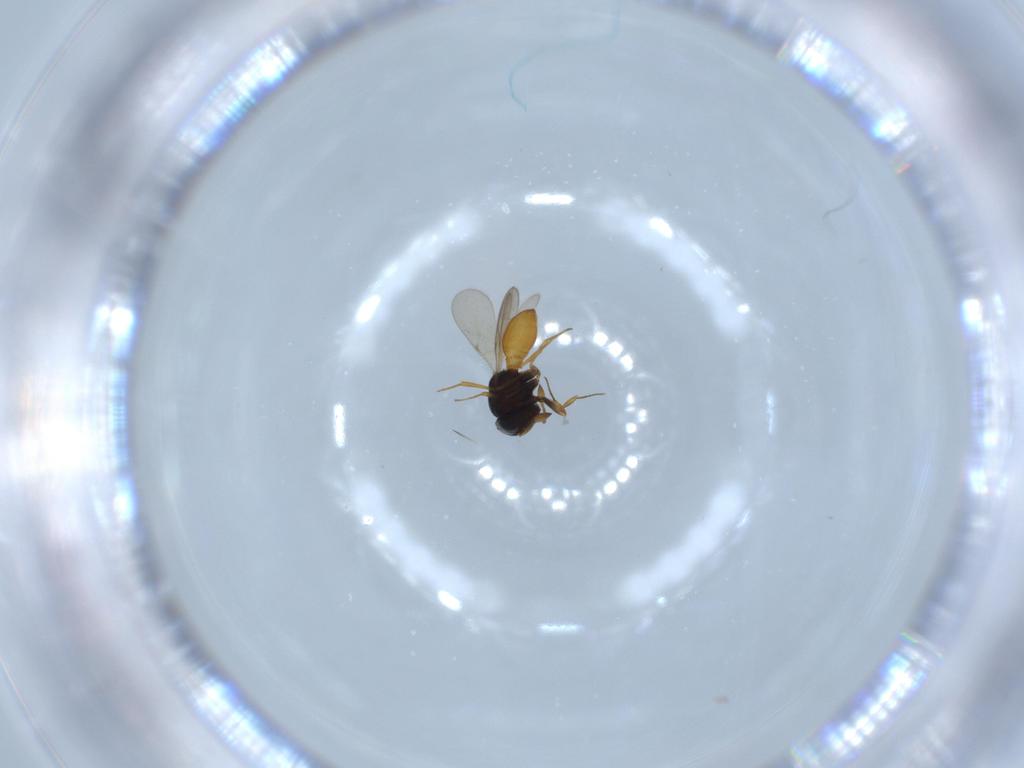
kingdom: Animalia
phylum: Arthropoda
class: Insecta
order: Hymenoptera
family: Scelionidae
